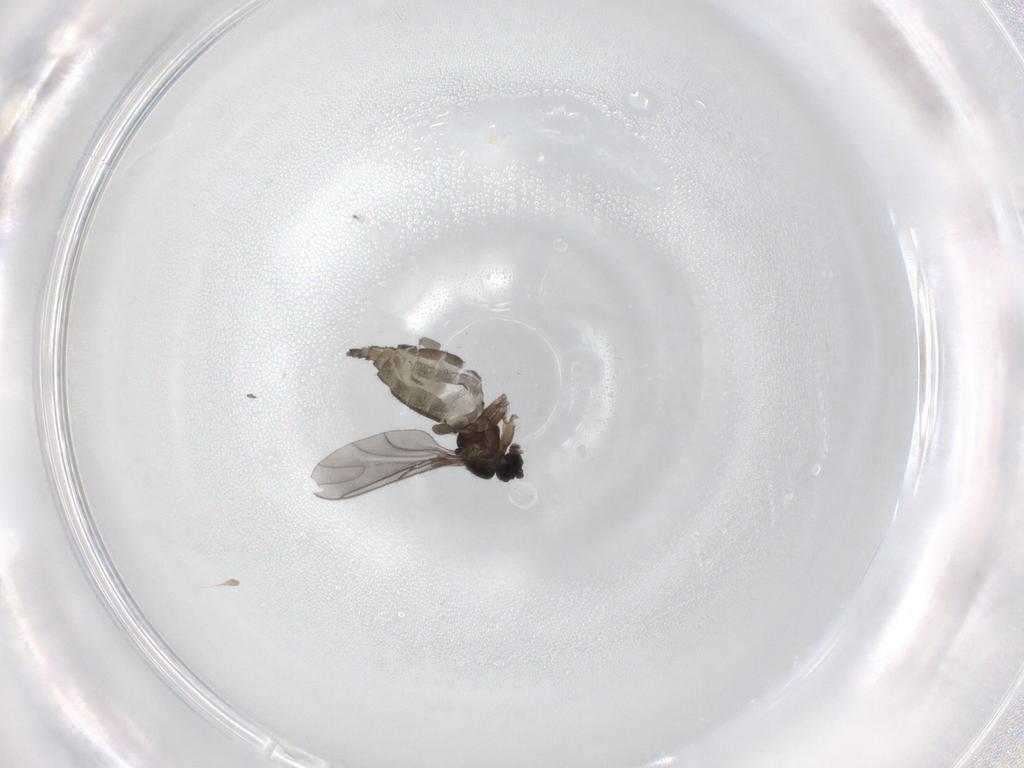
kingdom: Animalia
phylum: Arthropoda
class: Insecta
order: Diptera
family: Sciaridae
